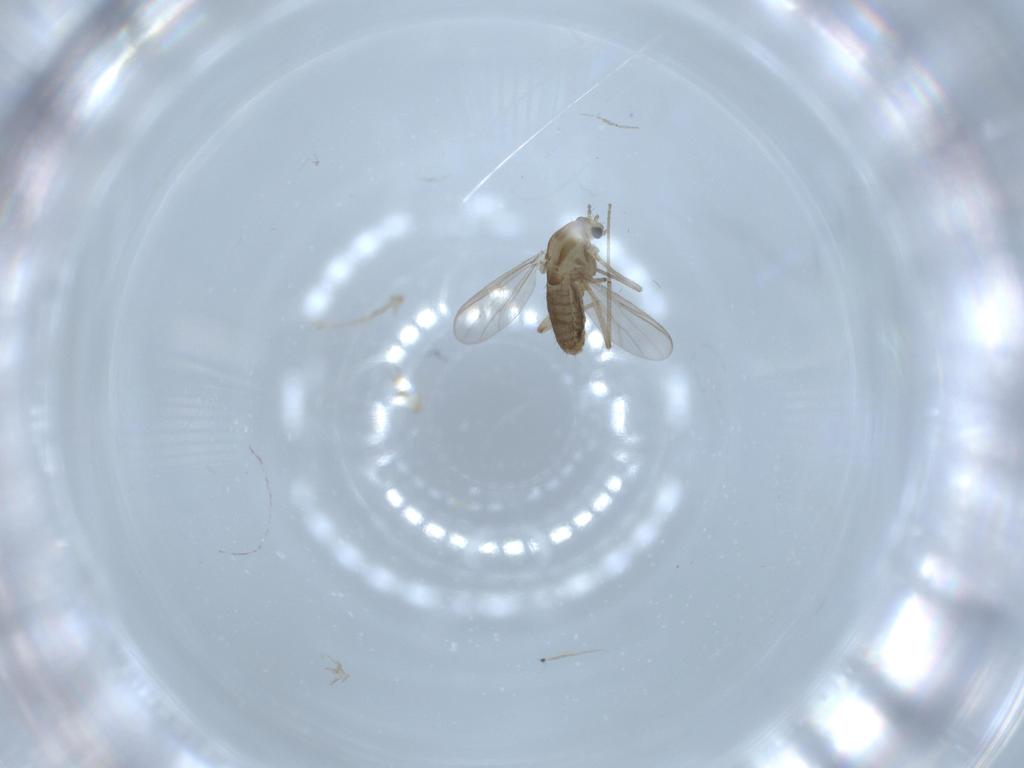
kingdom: Animalia
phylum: Arthropoda
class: Insecta
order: Diptera
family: Chironomidae
